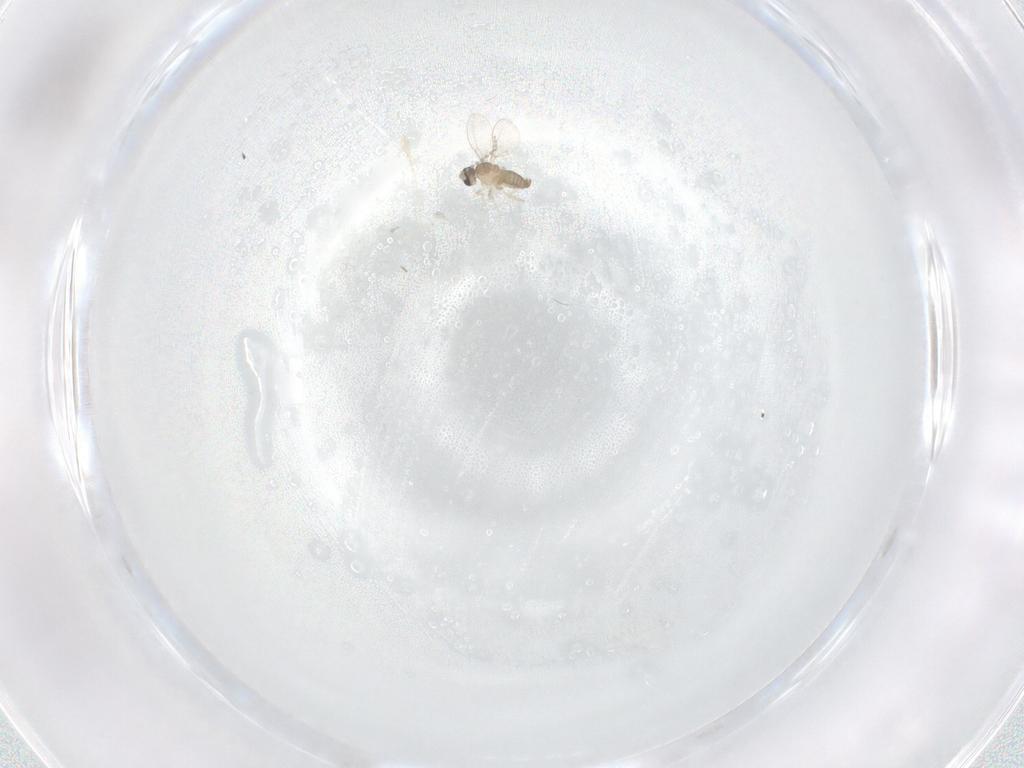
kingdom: Animalia
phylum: Arthropoda
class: Insecta
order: Diptera
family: Cecidomyiidae
